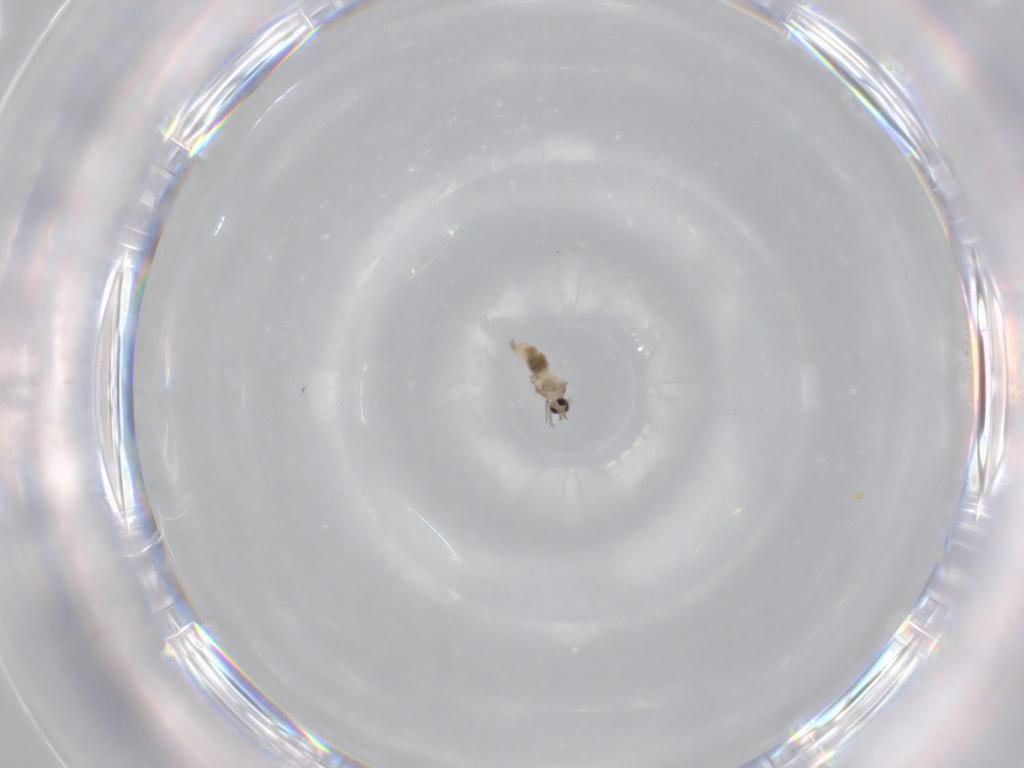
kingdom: Animalia
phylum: Arthropoda
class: Insecta
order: Diptera
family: Cecidomyiidae
